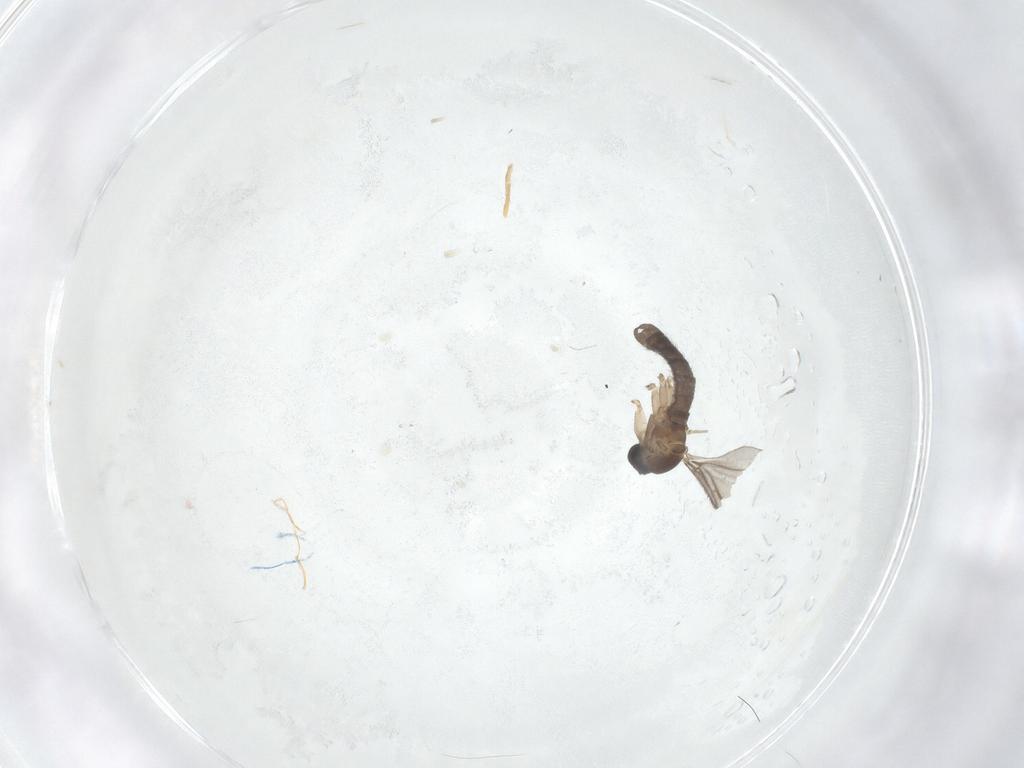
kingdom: Animalia
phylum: Arthropoda
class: Insecta
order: Diptera
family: Sciaridae
